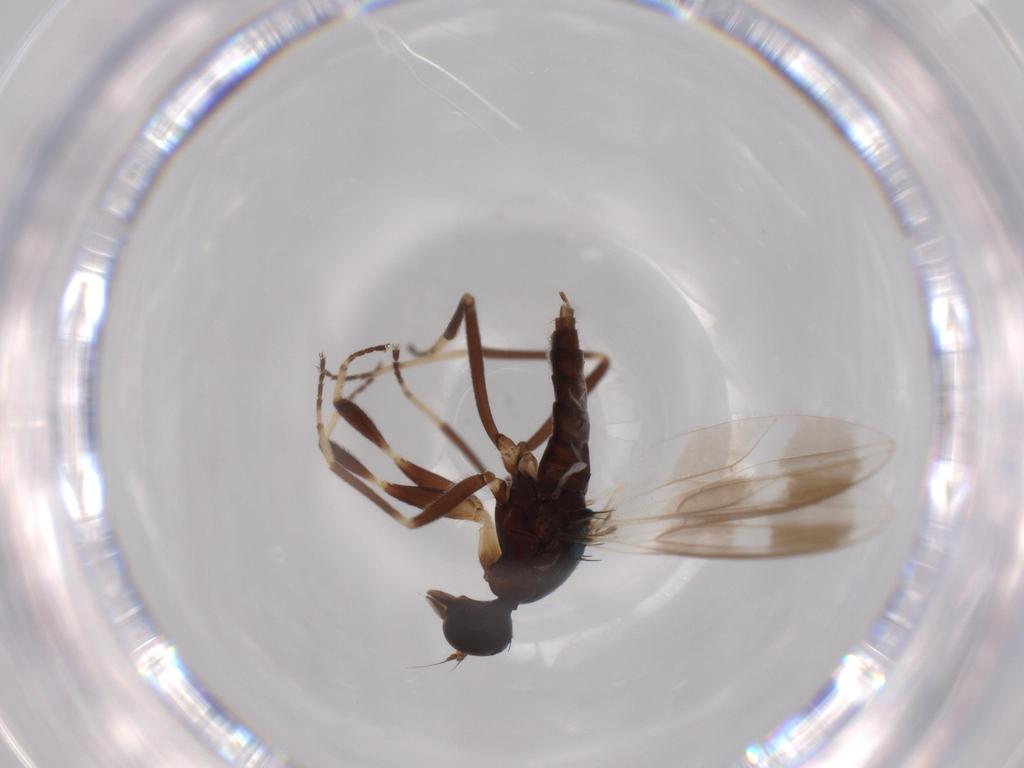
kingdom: Animalia
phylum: Arthropoda
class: Insecta
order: Diptera
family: Hybotidae
